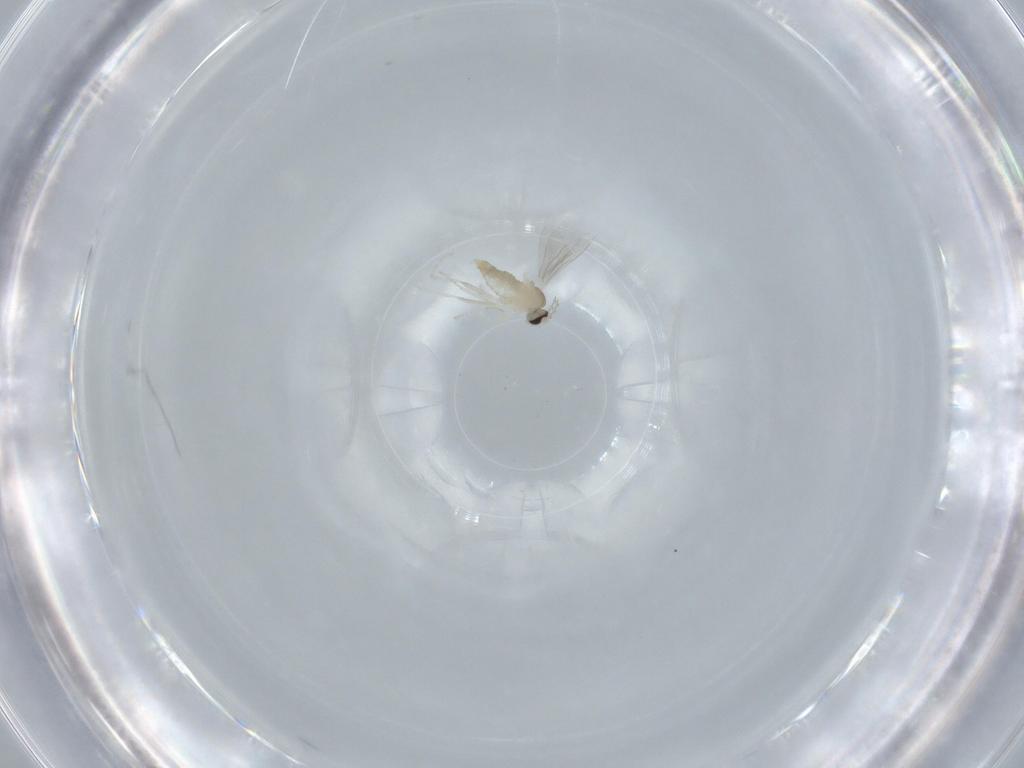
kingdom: Animalia
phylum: Arthropoda
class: Insecta
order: Diptera
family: Cecidomyiidae
